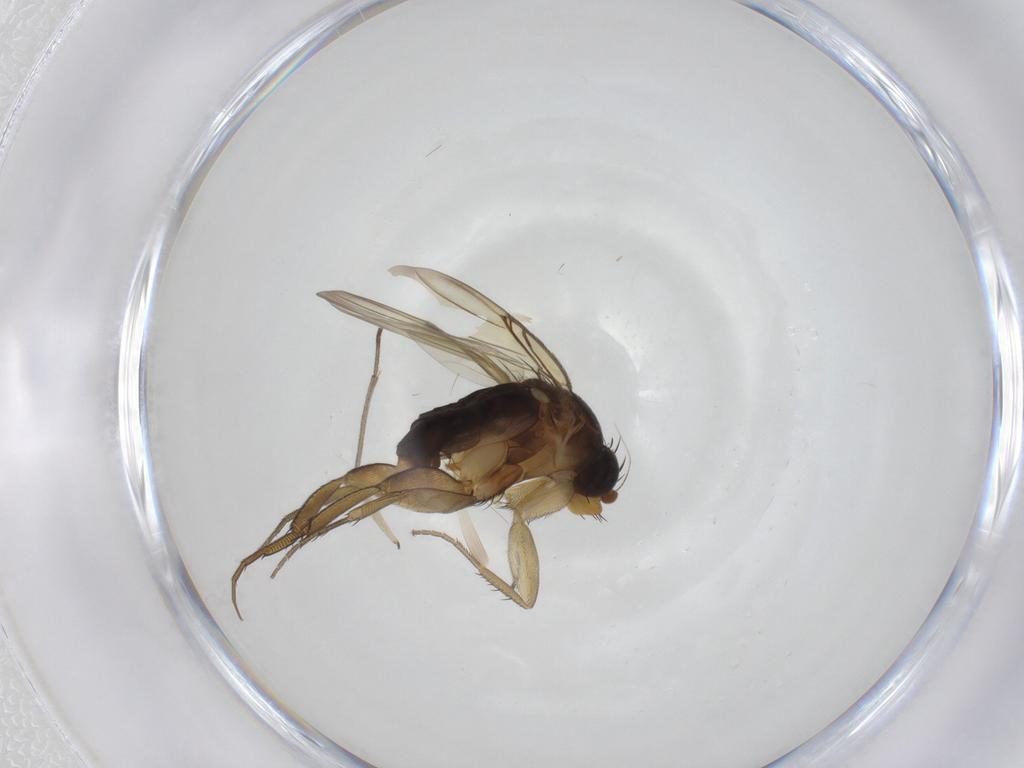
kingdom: Animalia
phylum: Arthropoda
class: Insecta
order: Diptera
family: Phoridae
